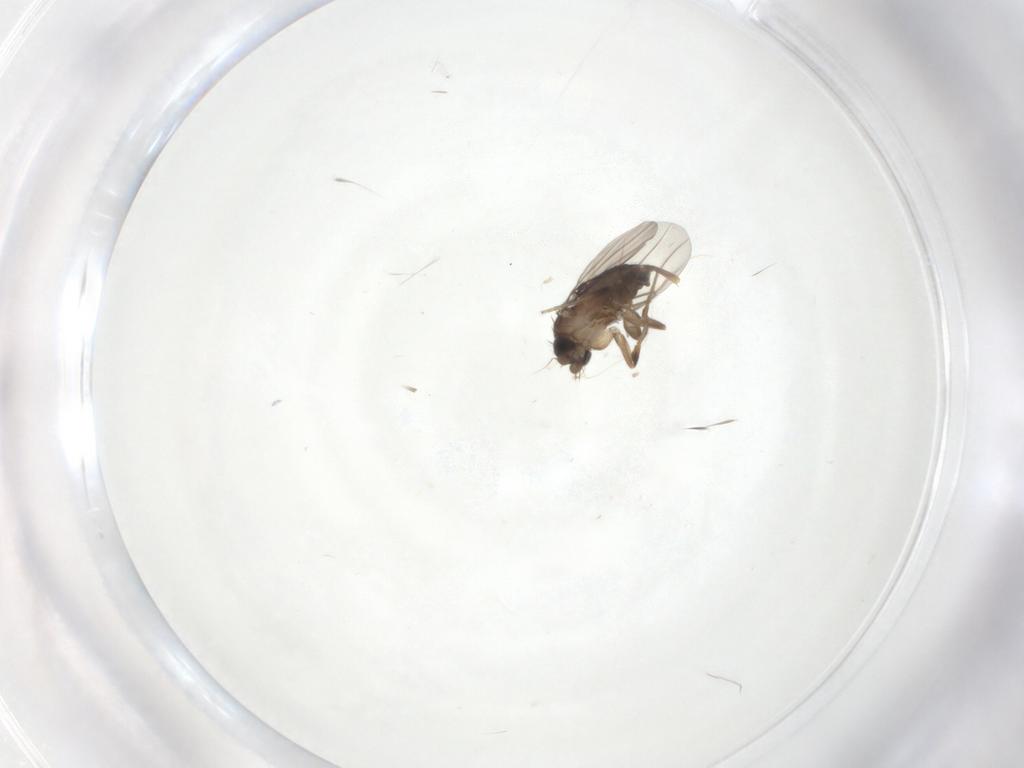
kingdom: Animalia
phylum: Arthropoda
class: Insecta
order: Diptera
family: Phoridae
